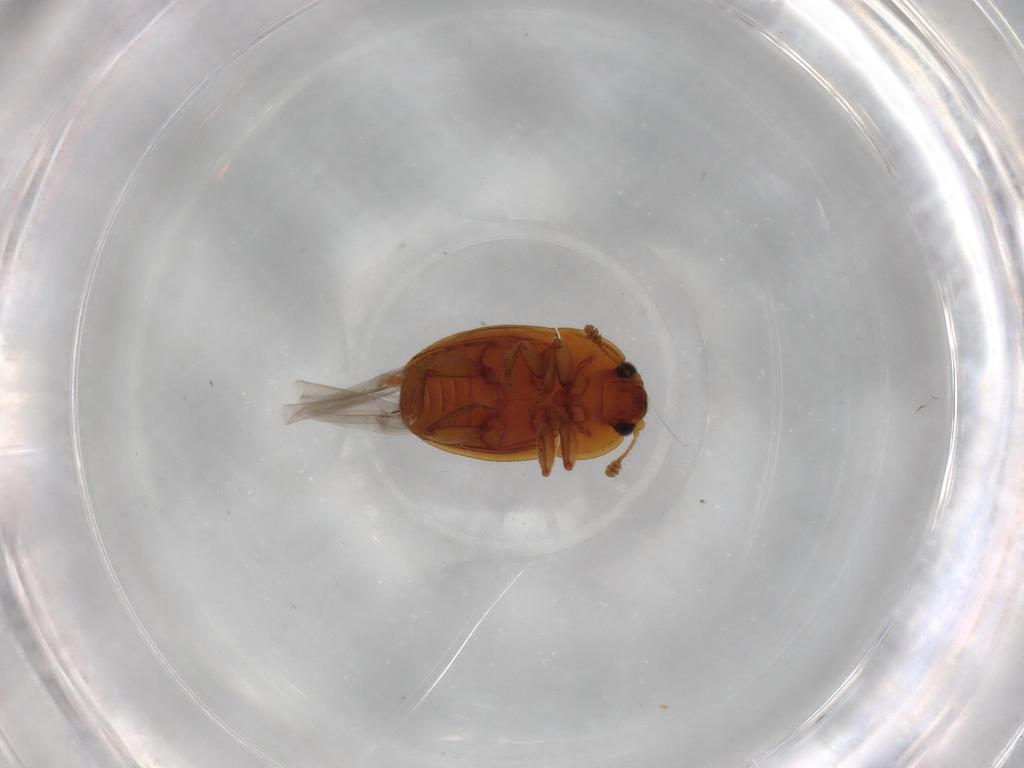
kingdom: Animalia
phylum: Arthropoda
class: Insecta
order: Coleoptera
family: Nitidulidae
